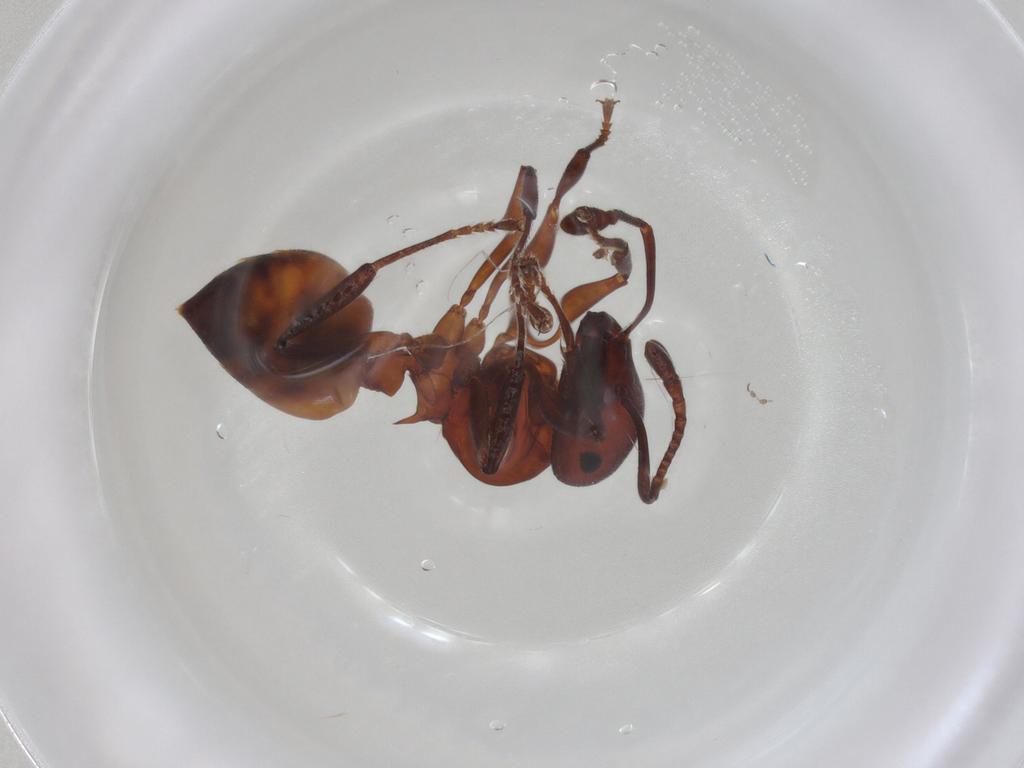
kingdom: Animalia
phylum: Arthropoda
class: Insecta
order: Hymenoptera
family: Formicidae
